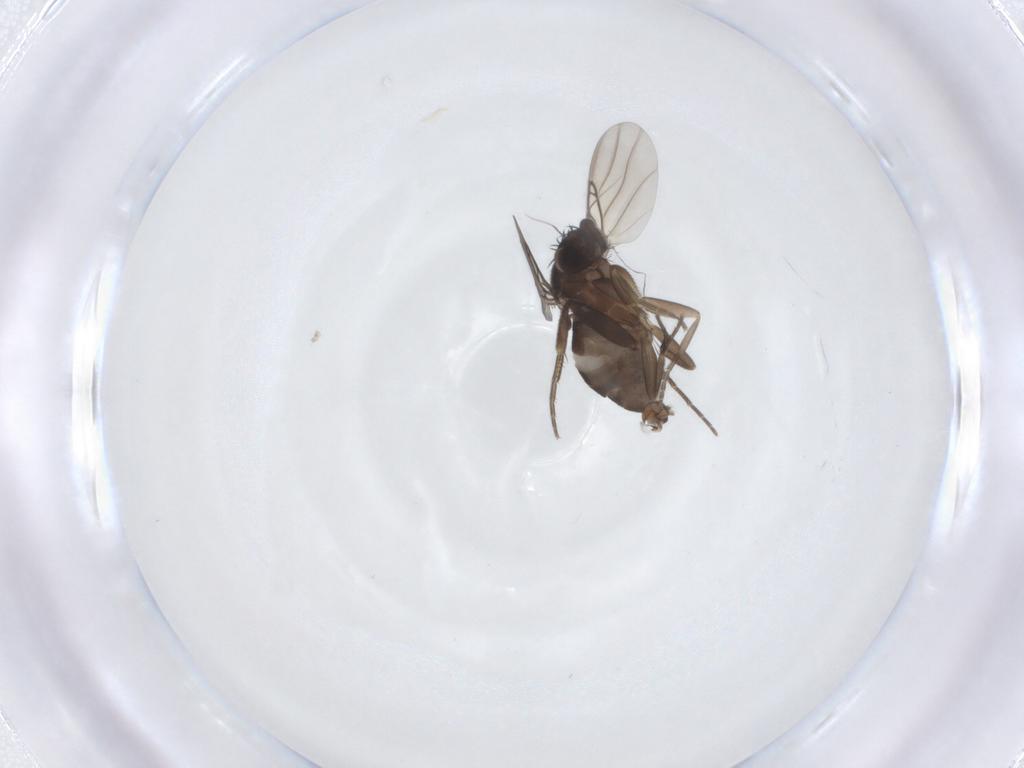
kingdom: Animalia
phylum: Arthropoda
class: Insecta
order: Diptera
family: Phoridae
